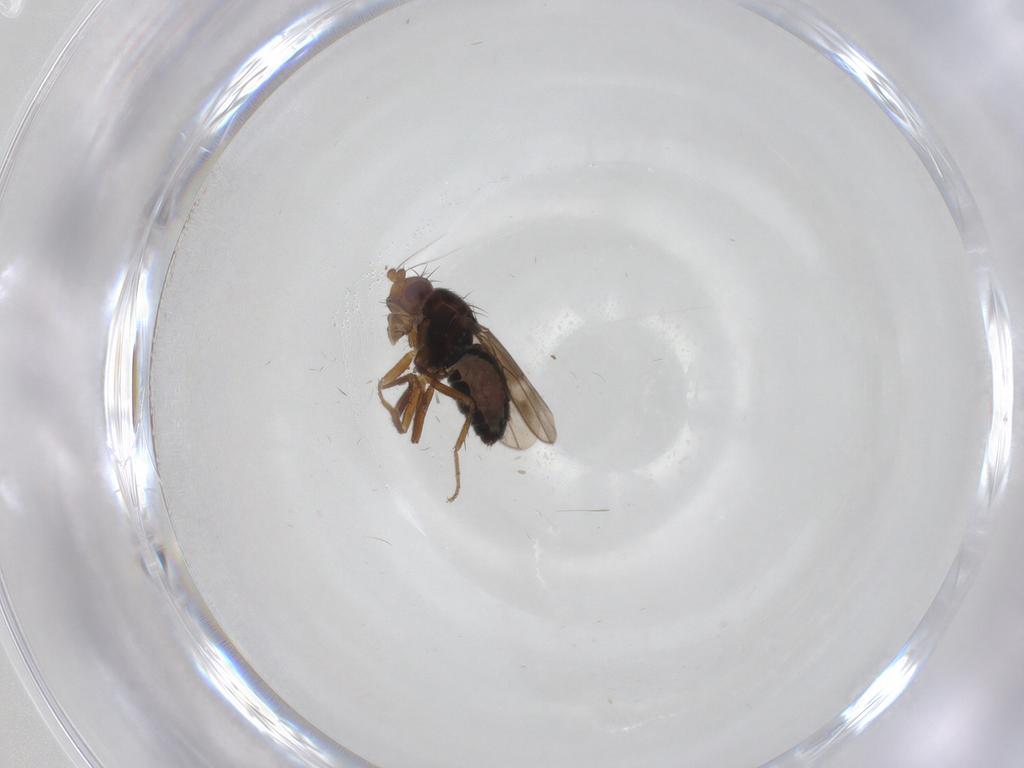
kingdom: Animalia
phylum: Arthropoda
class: Insecta
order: Diptera
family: Sphaeroceridae
